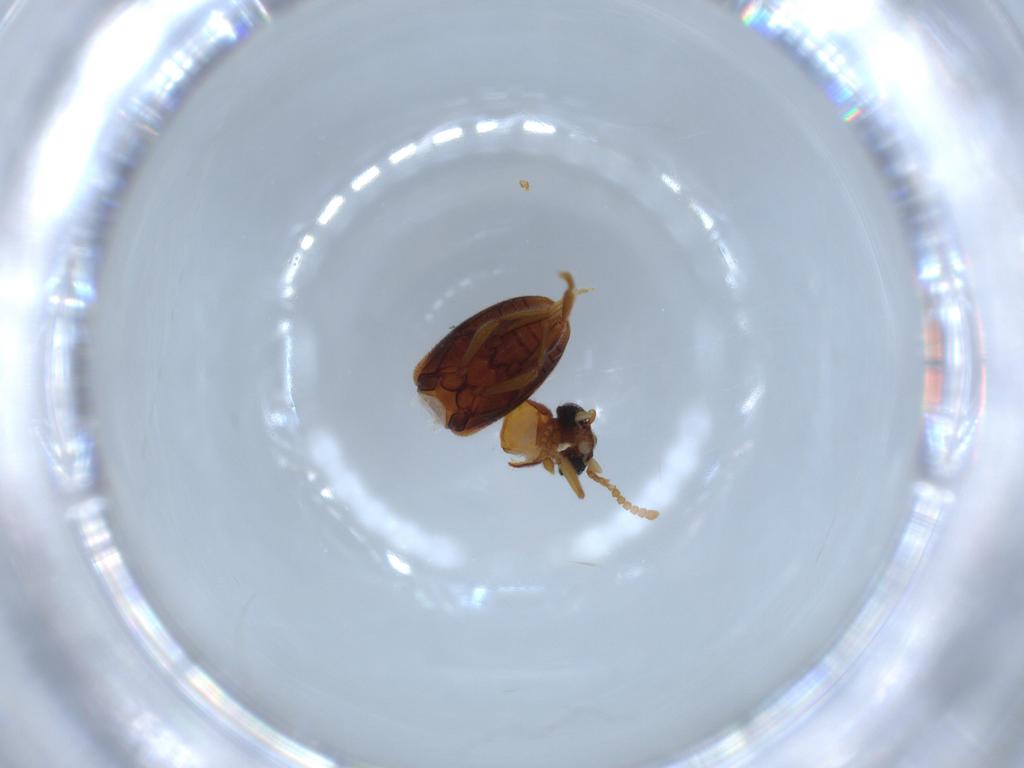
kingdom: Animalia
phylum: Arthropoda
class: Insecta
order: Coleoptera
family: Aderidae
